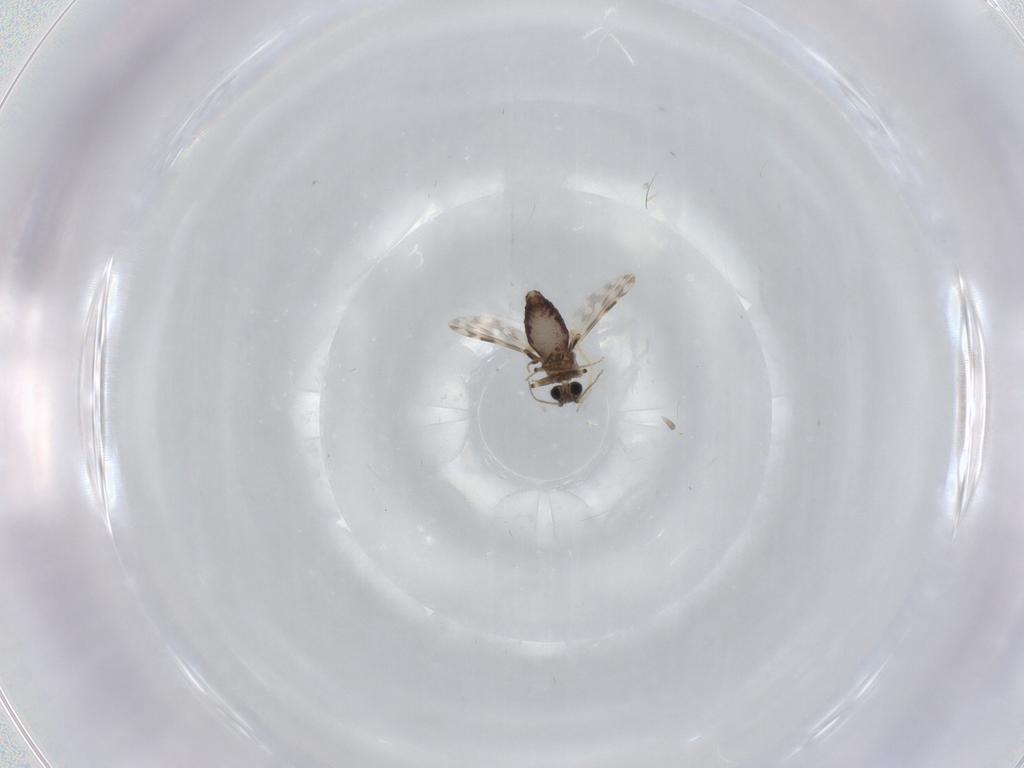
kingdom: Animalia
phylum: Arthropoda
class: Insecta
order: Diptera
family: Ceratopogonidae
